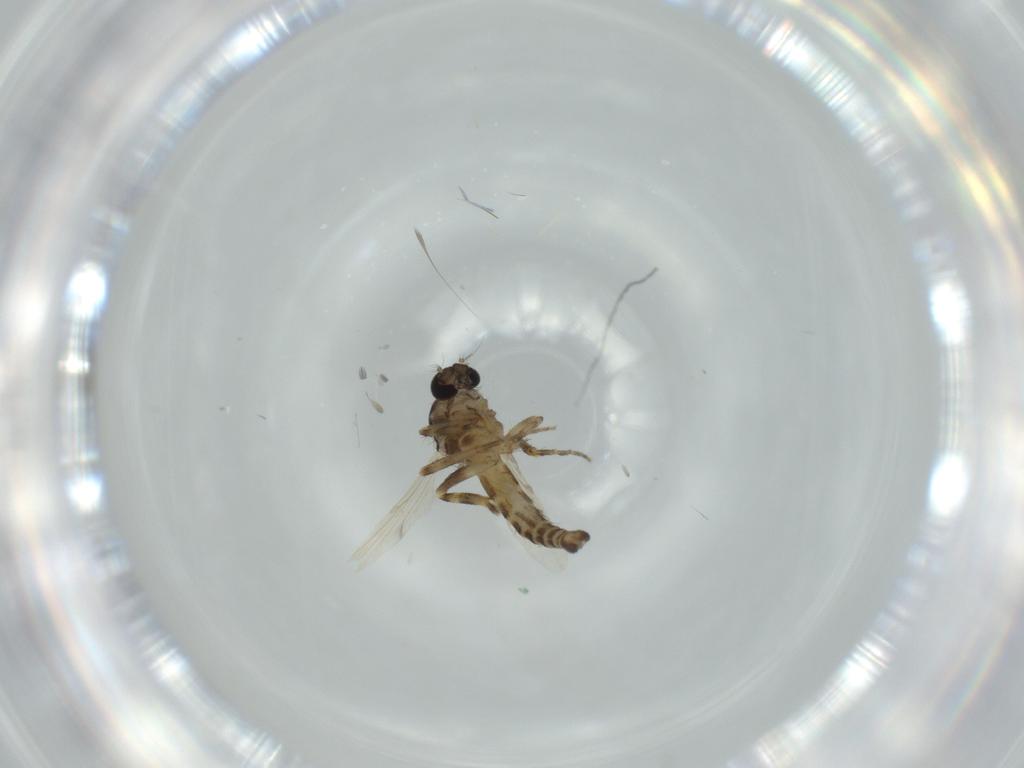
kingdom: Animalia
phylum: Arthropoda
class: Insecta
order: Diptera
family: Ceratopogonidae
